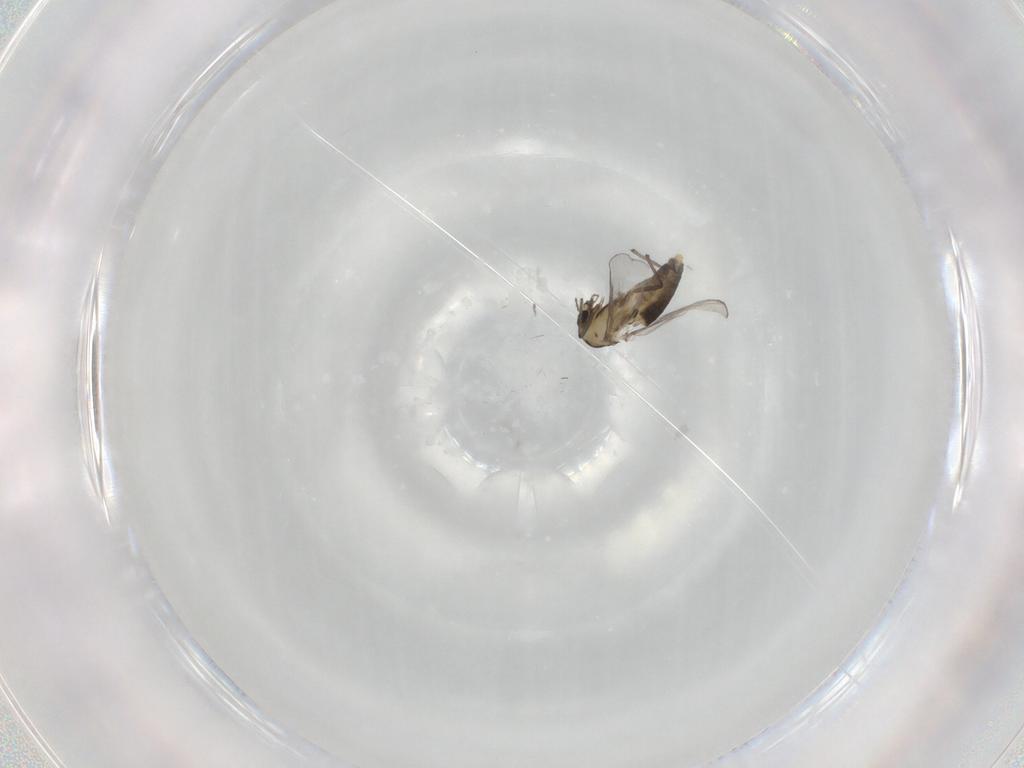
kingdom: Animalia
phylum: Arthropoda
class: Insecta
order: Diptera
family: Chironomidae
